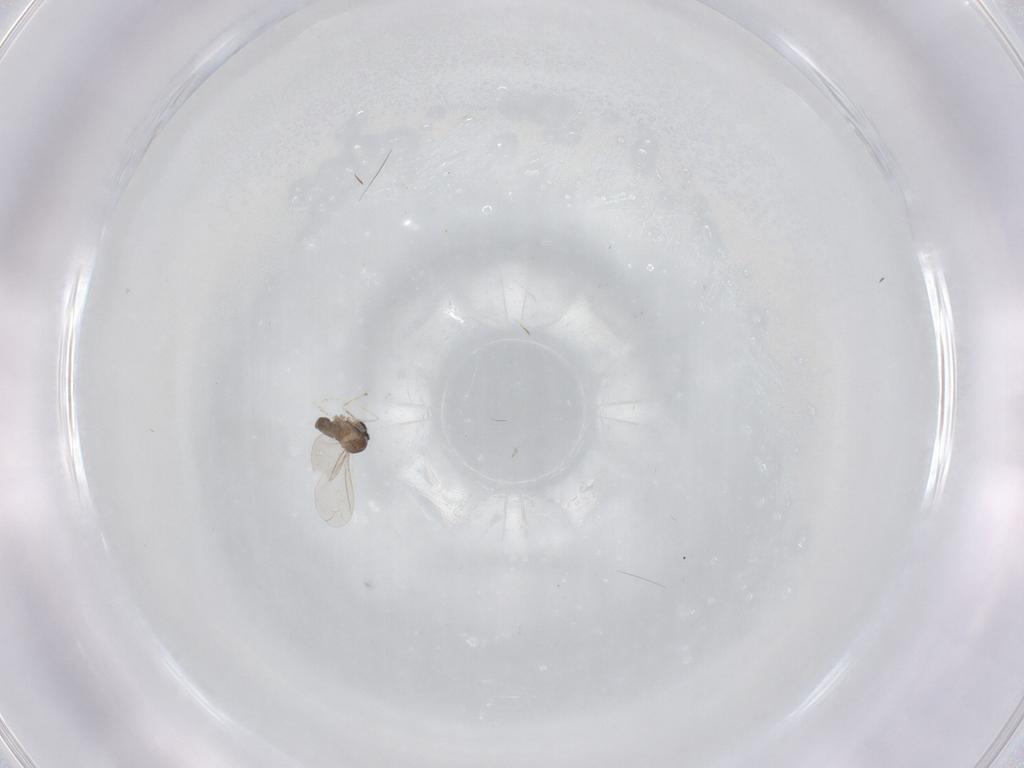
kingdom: Animalia
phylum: Arthropoda
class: Insecta
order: Diptera
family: Cecidomyiidae
